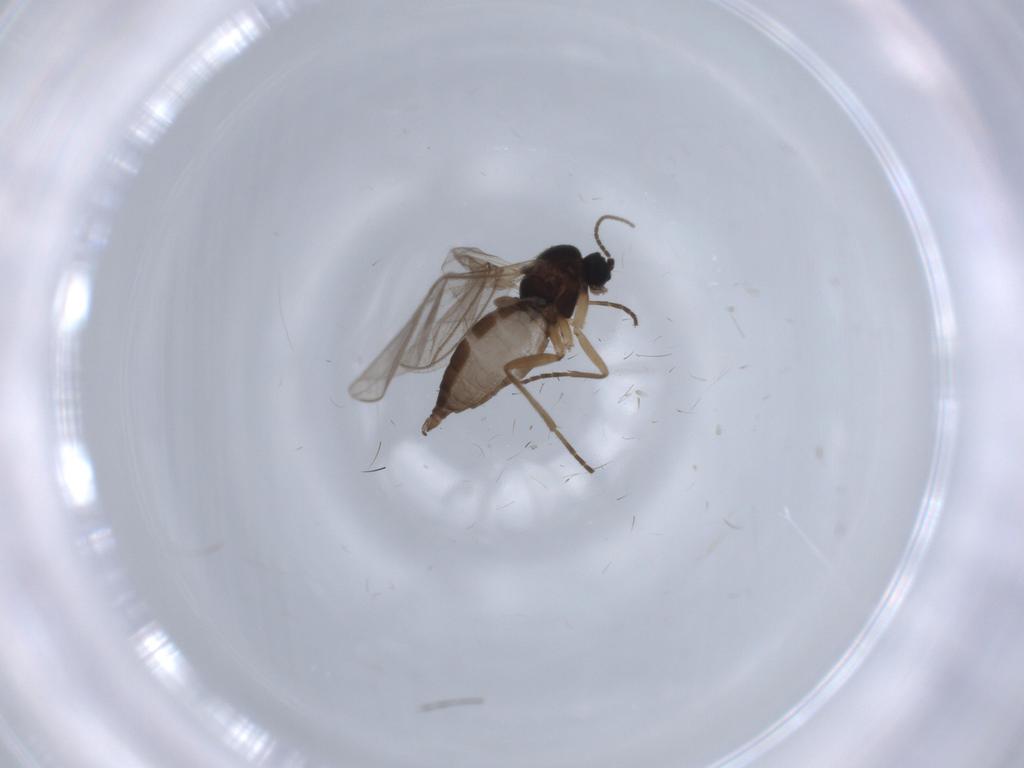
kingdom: Animalia
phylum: Arthropoda
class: Insecta
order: Diptera
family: Sciaridae
